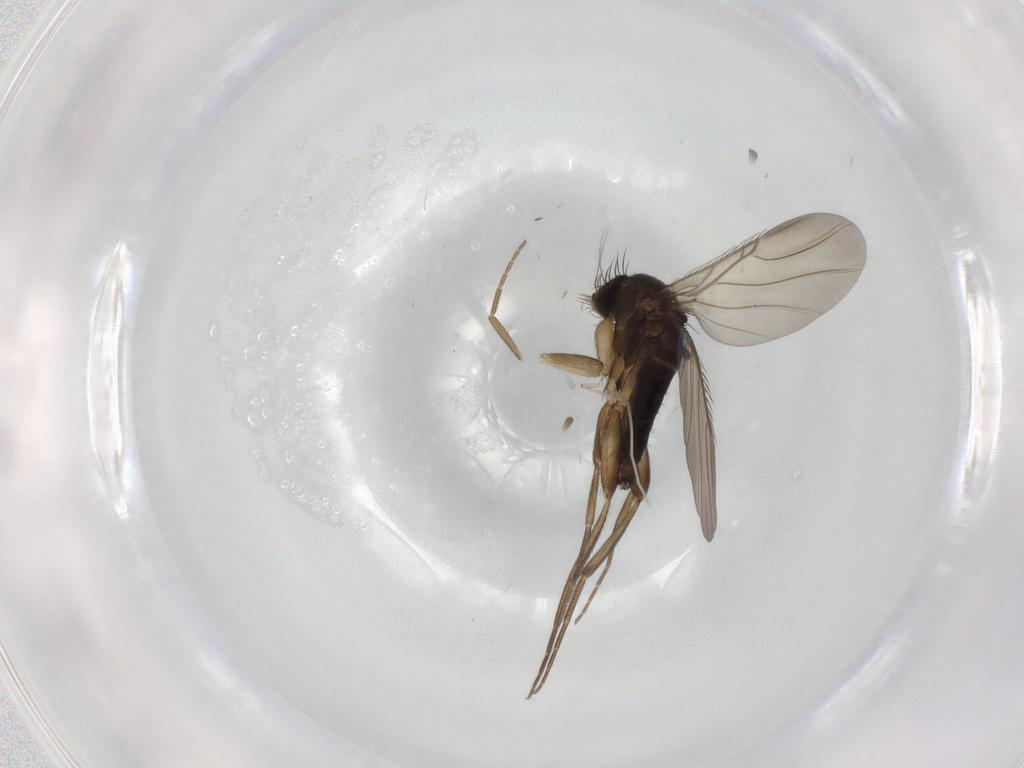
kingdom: Animalia
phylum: Arthropoda
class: Insecta
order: Diptera
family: Phoridae
